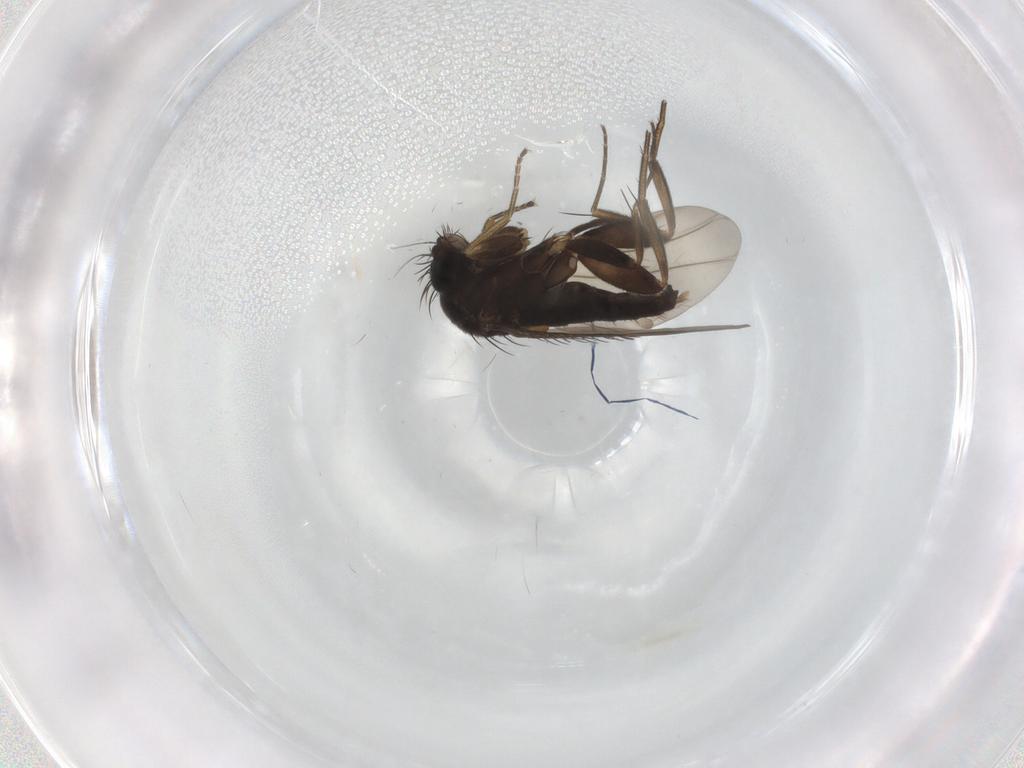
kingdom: Animalia
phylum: Arthropoda
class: Insecta
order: Diptera
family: Phoridae
